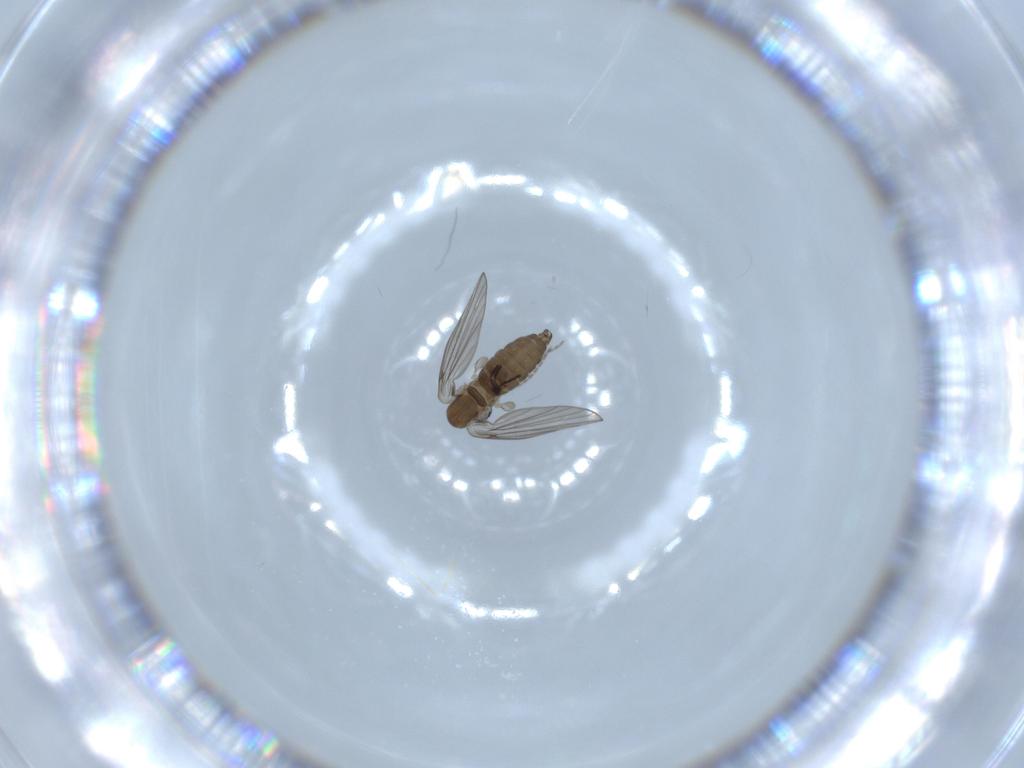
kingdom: Animalia
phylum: Arthropoda
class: Insecta
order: Diptera
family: Psychodidae
